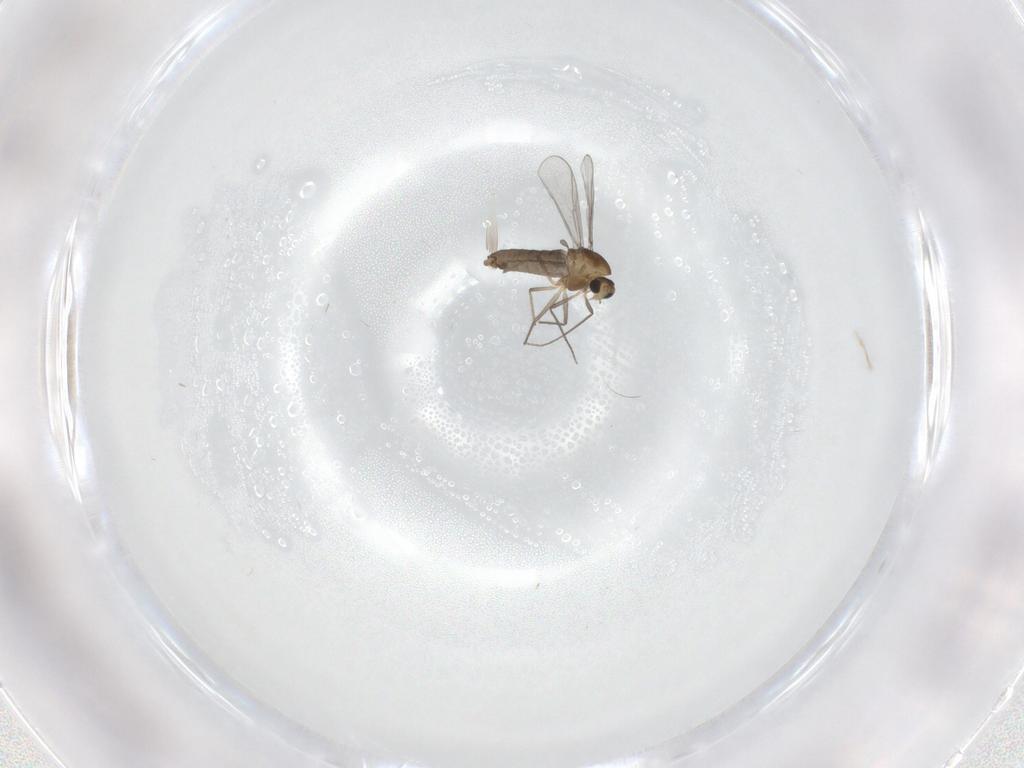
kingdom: Animalia
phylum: Arthropoda
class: Insecta
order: Diptera
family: Chironomidae
